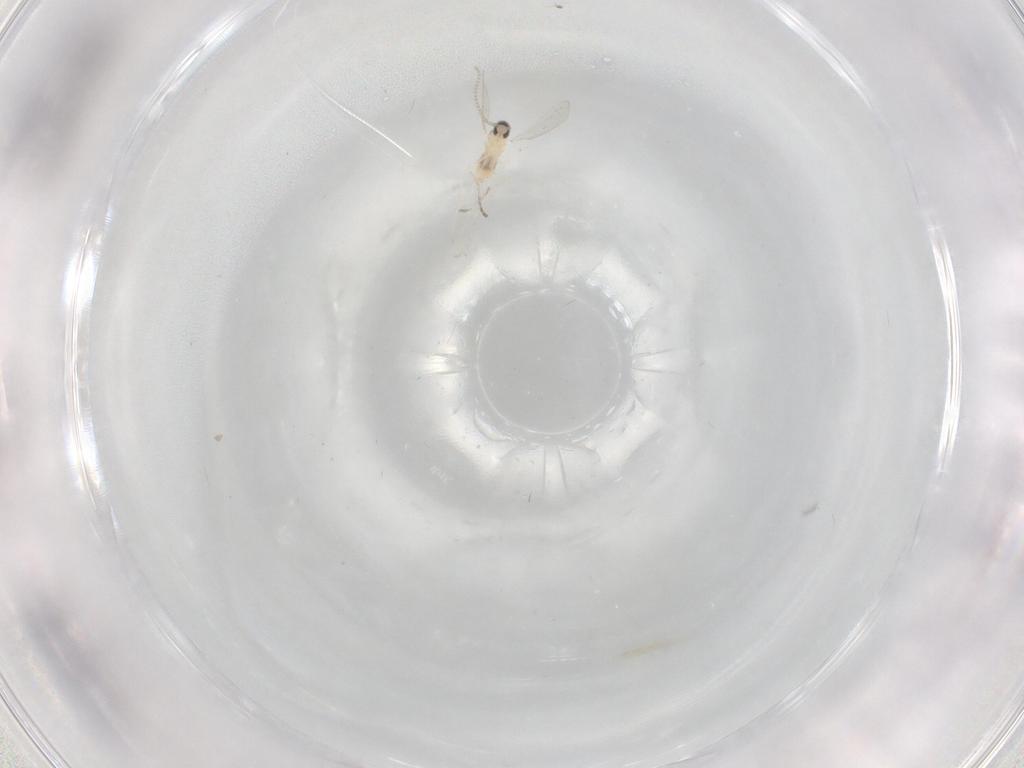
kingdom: Animalia
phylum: Arthropoda
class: Insecta
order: Diptera
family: Cecidomyiidae
